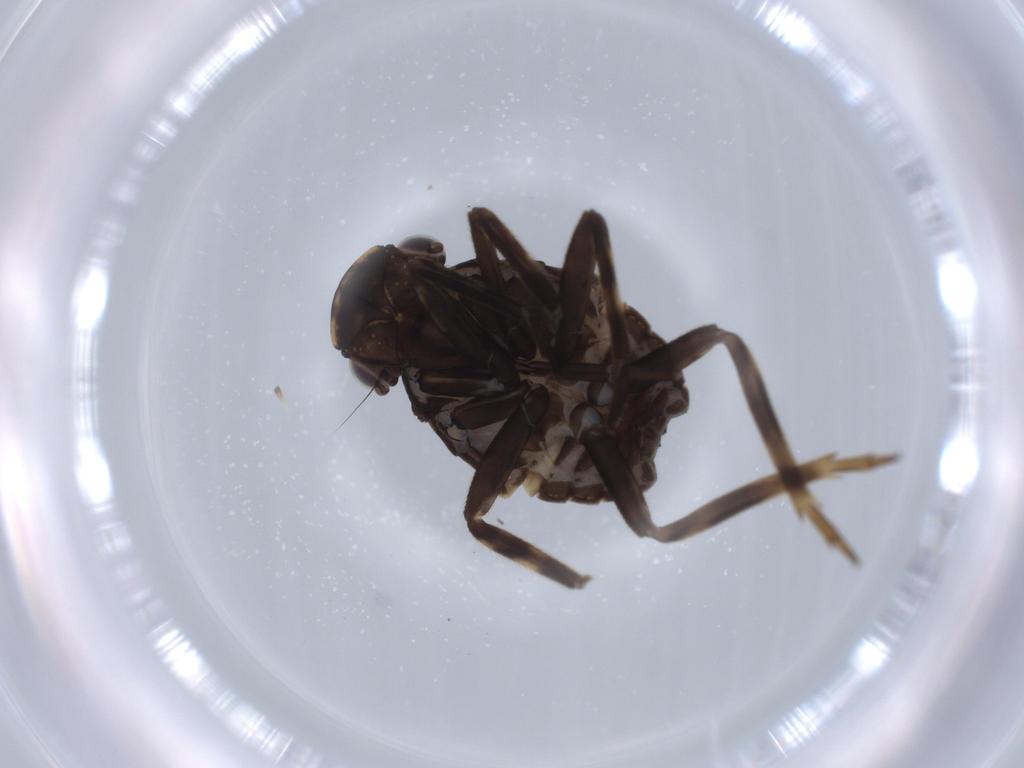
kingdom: Animalia
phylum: Arthropoda
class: Insecta
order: Hemiptera
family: Fulgoridae
